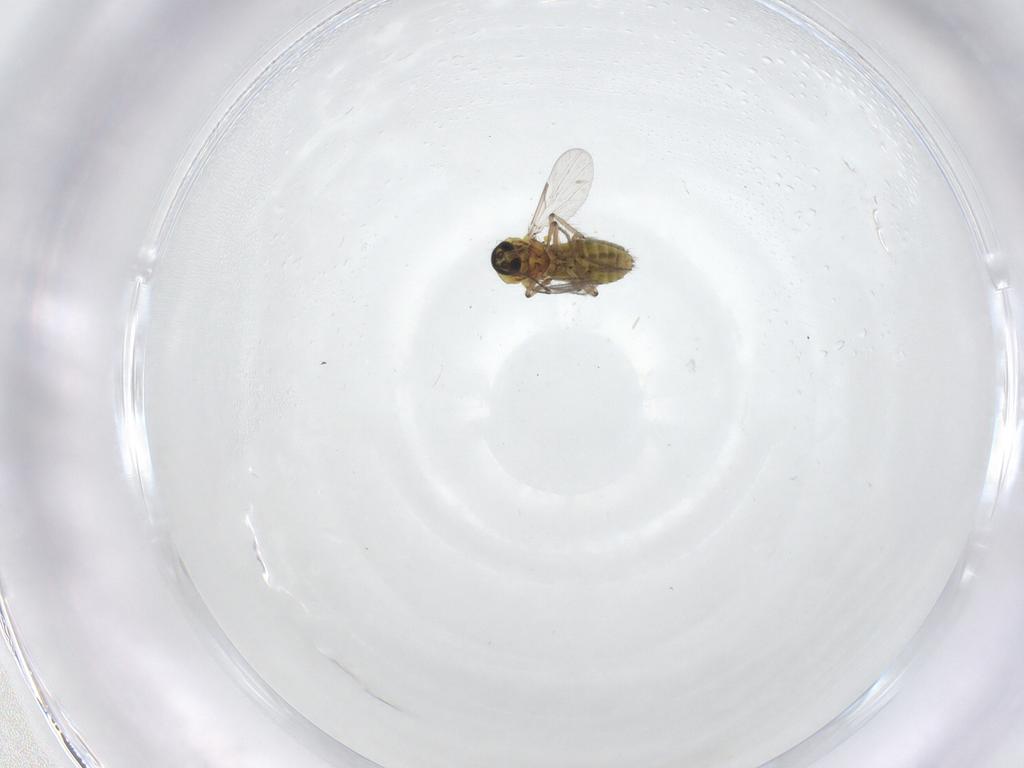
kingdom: Animalia
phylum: Arthropoda
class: Insecta
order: Diptera
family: Ceratopogonidae
